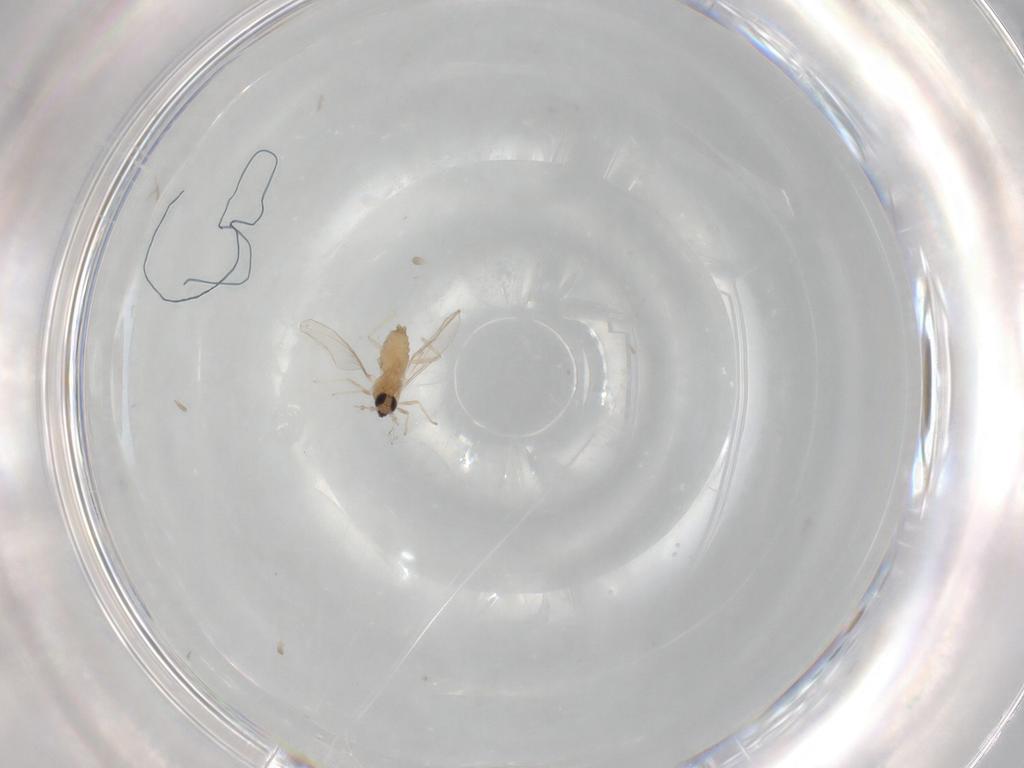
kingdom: Animalia
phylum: Arthropoda
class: Insecta
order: Diptera
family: Cecidomyiidae
